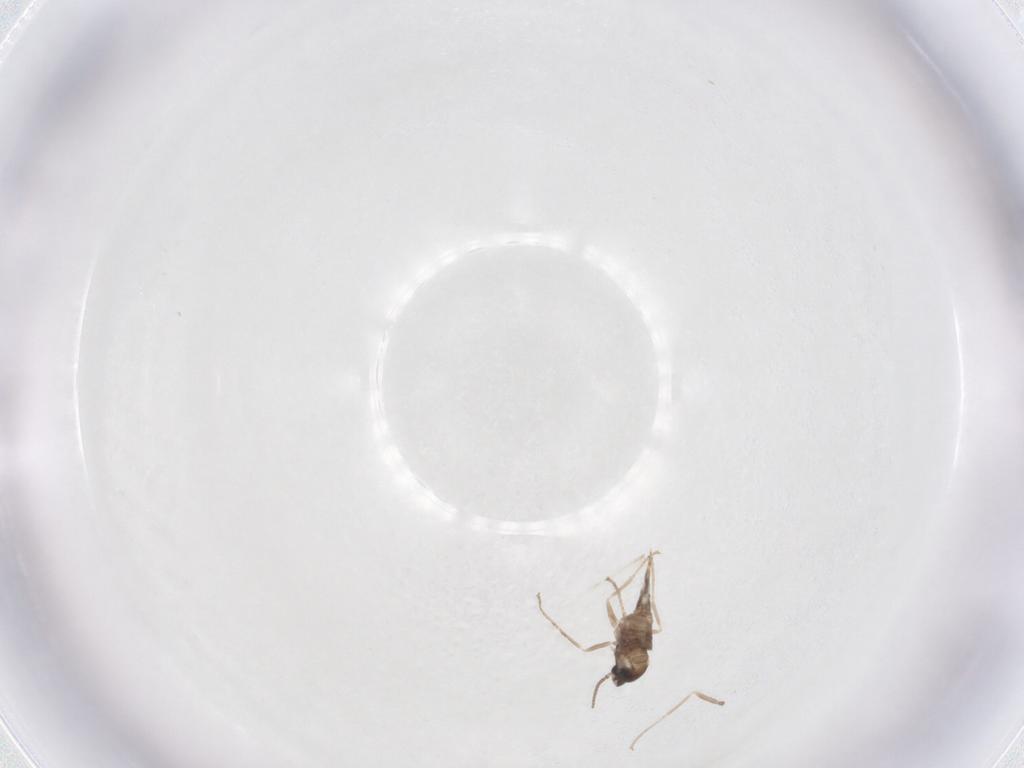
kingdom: Animalia
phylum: Arthropoda
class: Insecta
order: Diptera
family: Cecidomyiidae
